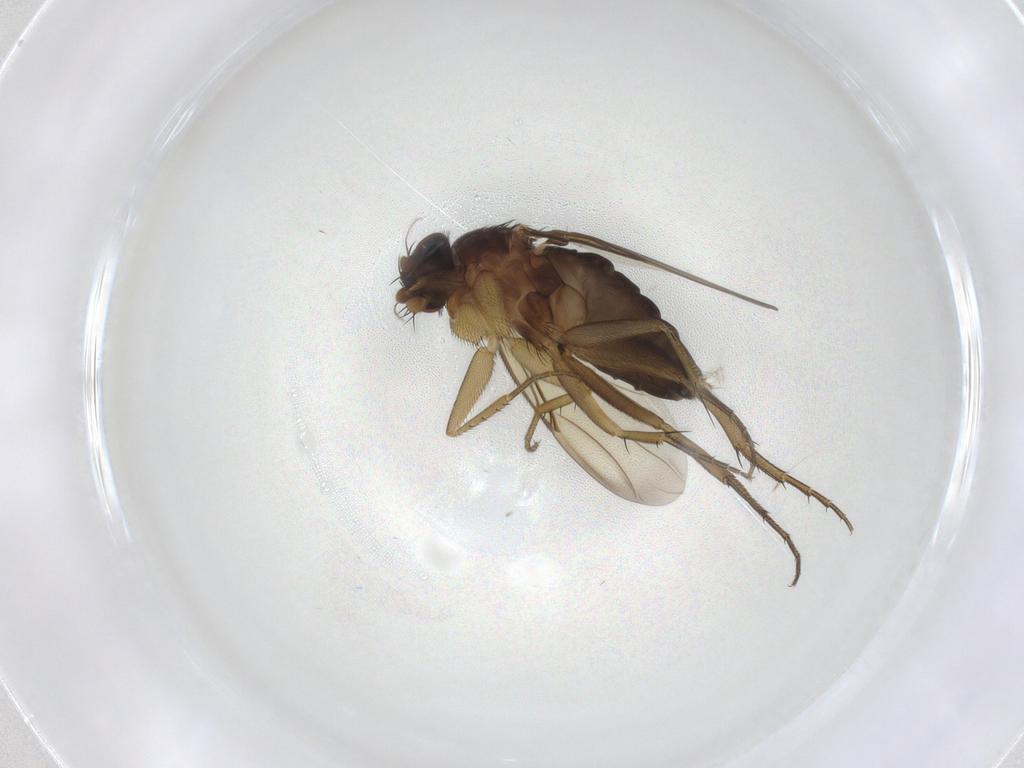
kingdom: Animalia
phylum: Arthropoda
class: Insecta
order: Diptera
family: Phoridae
